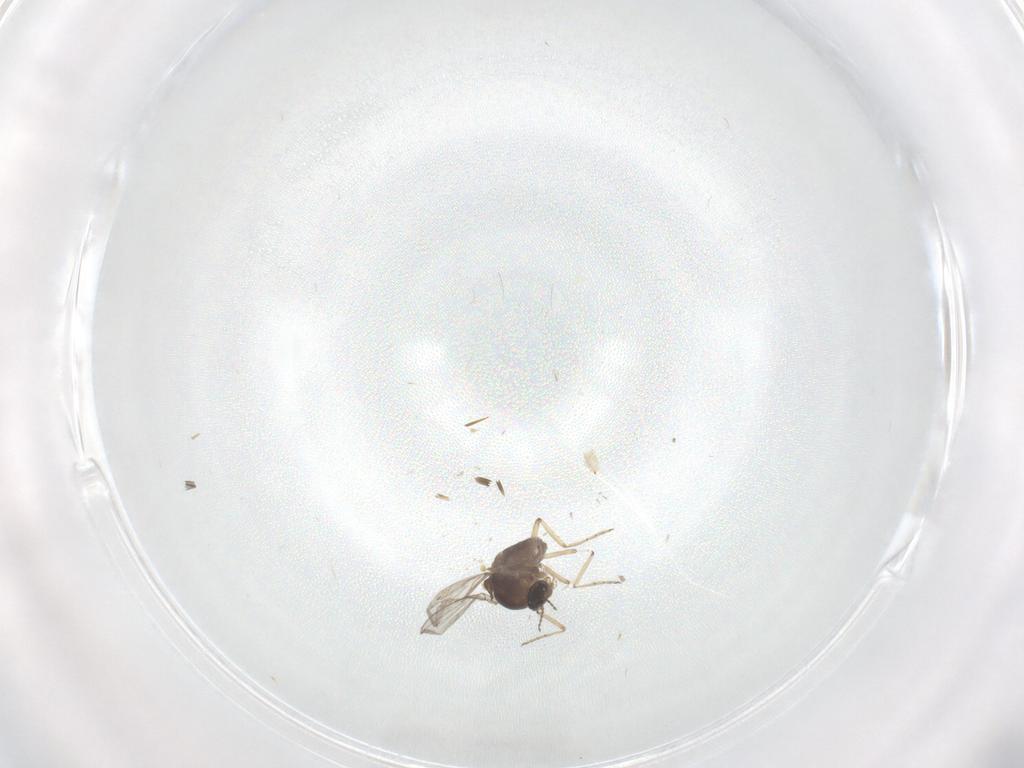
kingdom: Animalia
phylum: Arthropoda
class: Insecta
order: Diptera
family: Chironomidae
